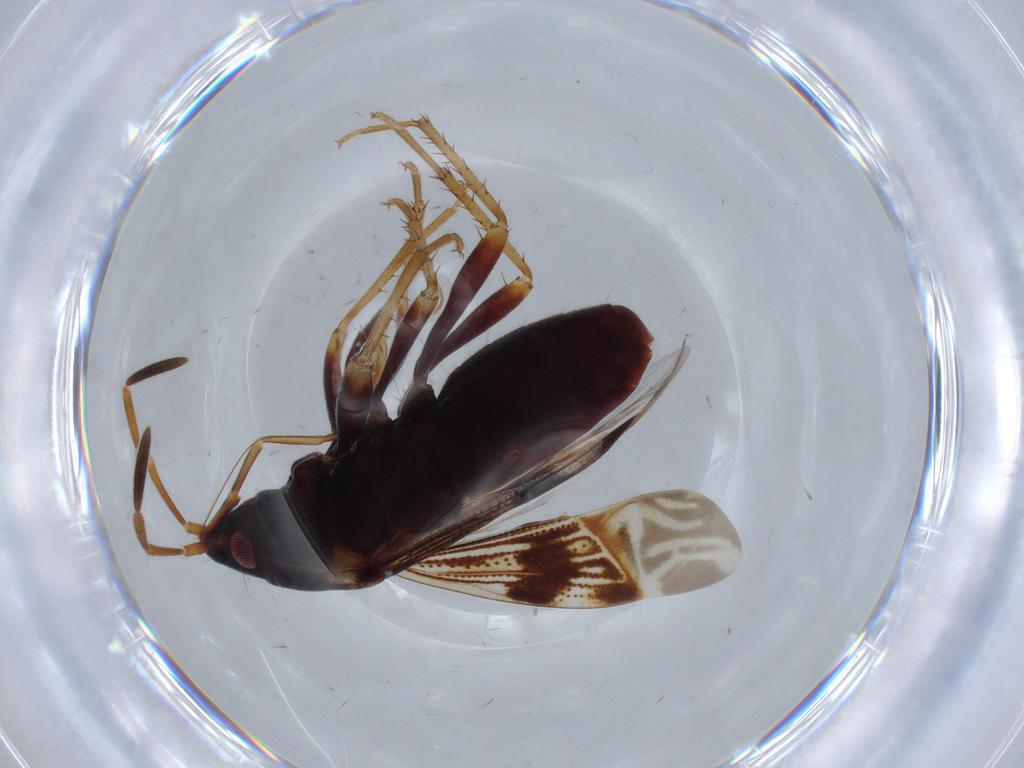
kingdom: Animalia
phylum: Arthropoda
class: Insecta
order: Hemiptera
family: Rhyparochromidae
